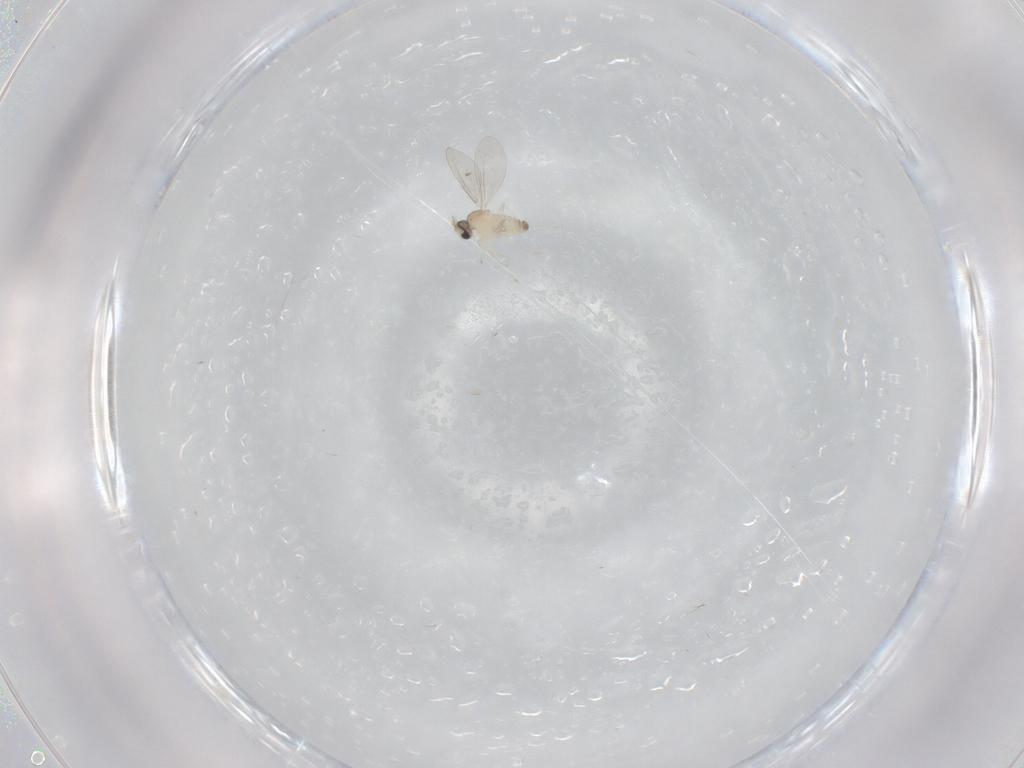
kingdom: Animalia
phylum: Arthropoda
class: Insecta
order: Diptera
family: Cecidomyiidae
